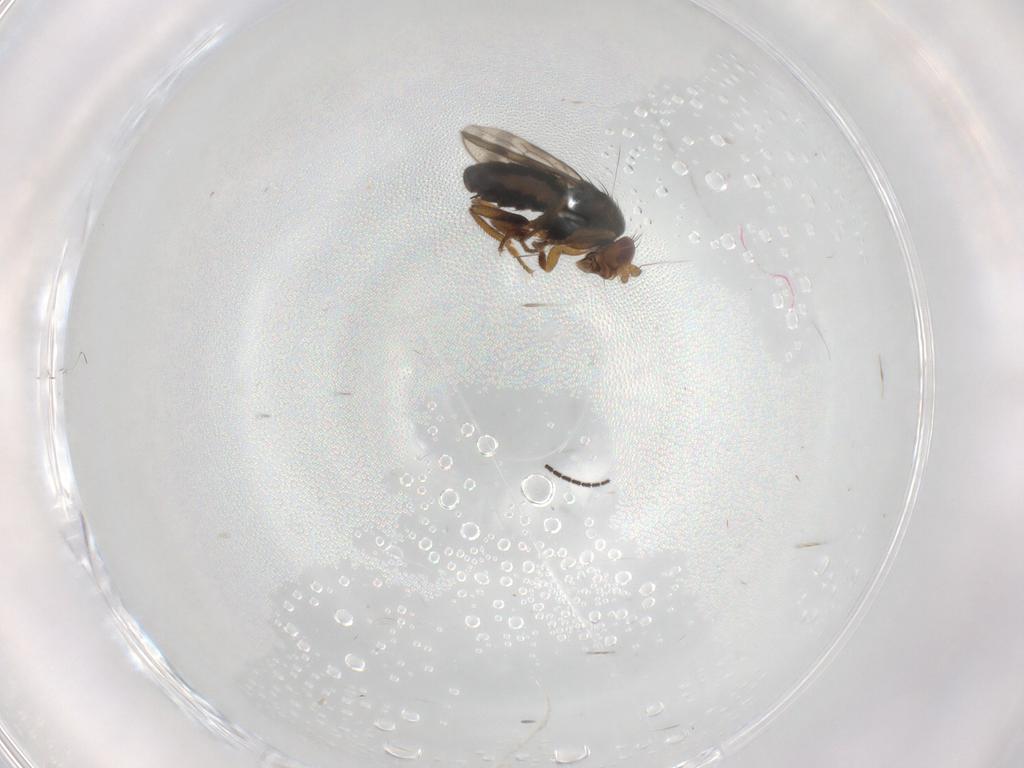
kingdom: Animalia
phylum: Arthropoda
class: Insecta
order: Diptera
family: Sphaeroceridae
